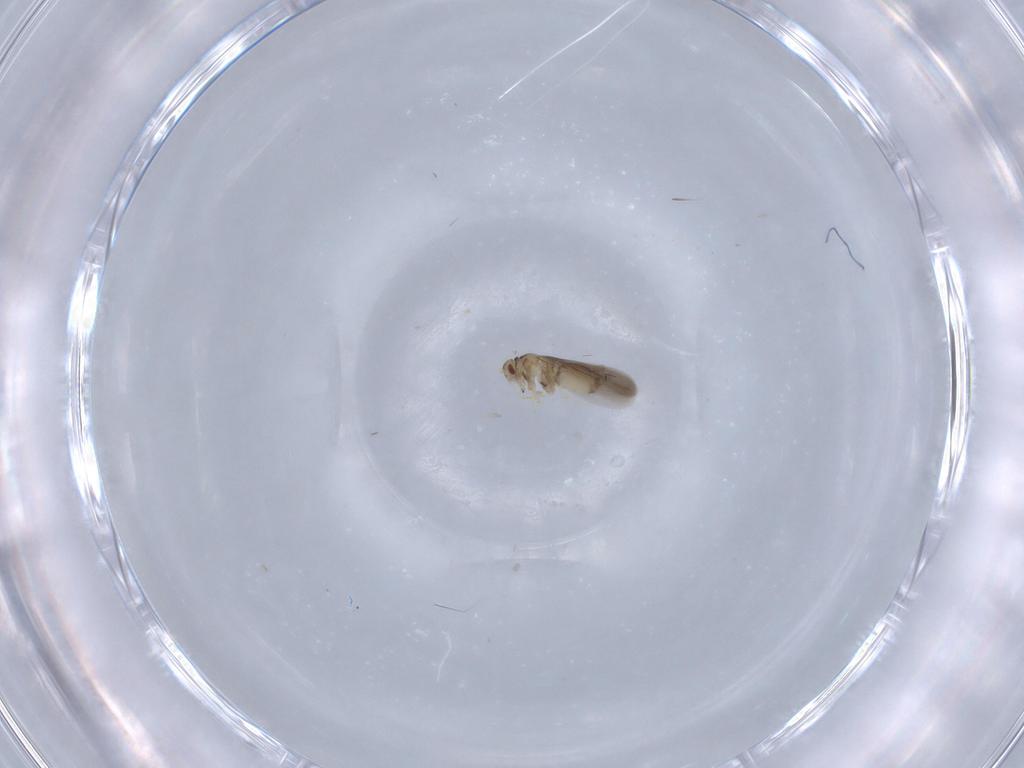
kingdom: Animalia
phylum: Arthropoda
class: Insecta
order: Hemiptera
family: Aleyrodidae
